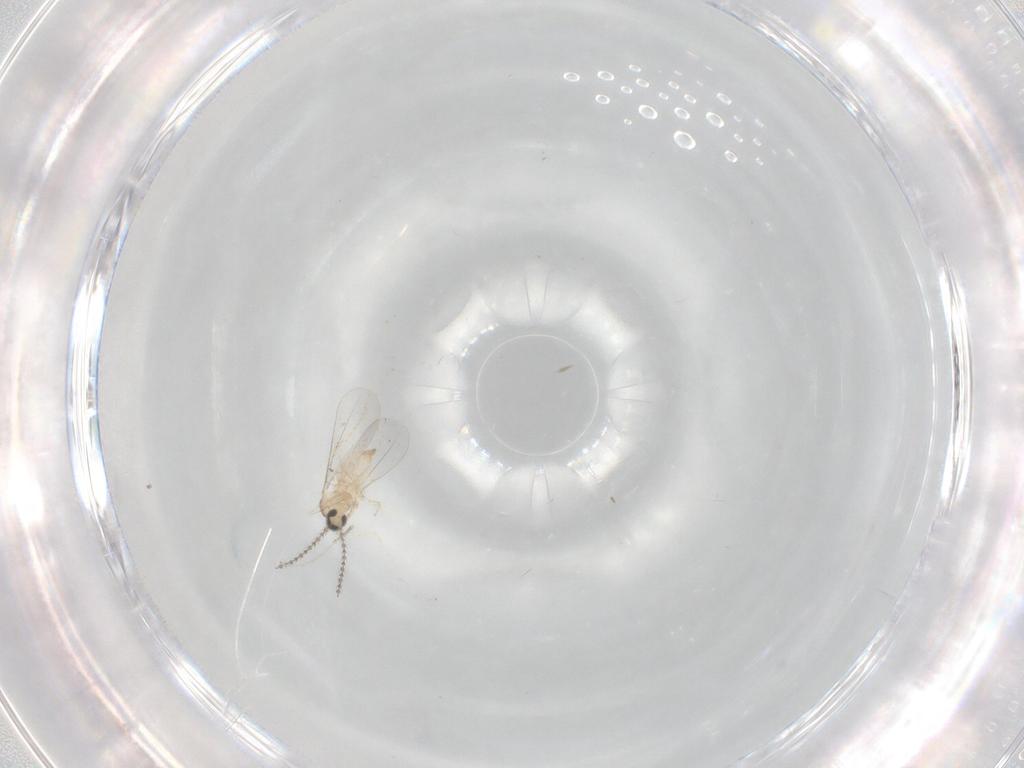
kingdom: Animalia
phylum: Arthropoda
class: Insecta
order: Diptera
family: Cecidomyiidae
